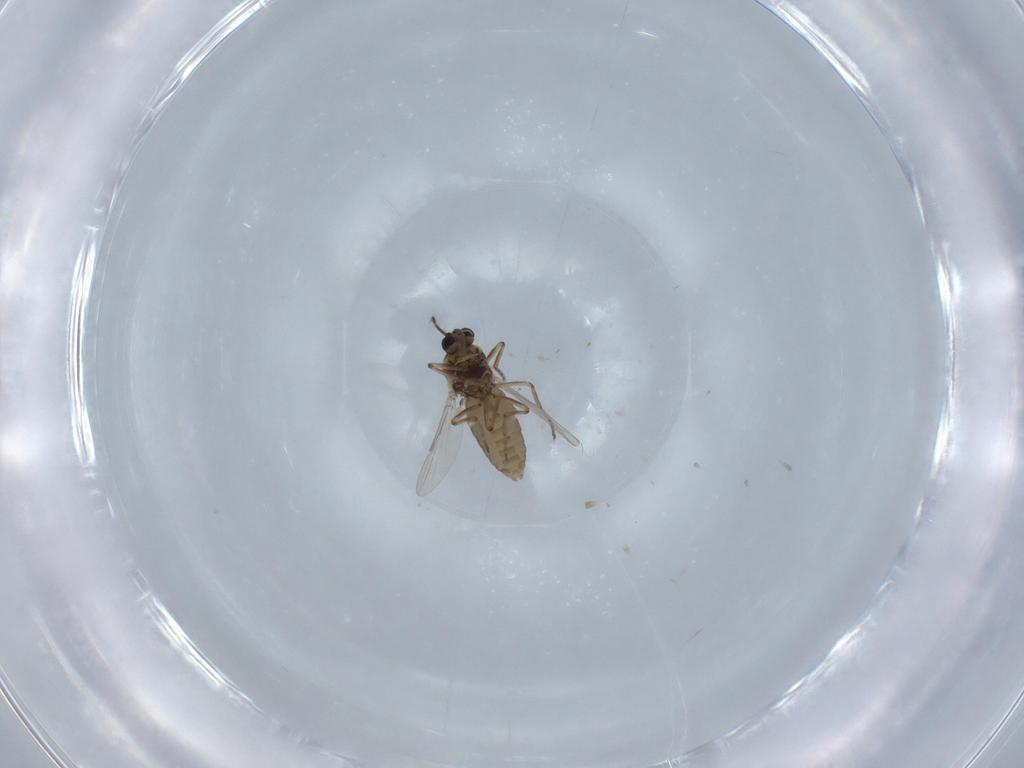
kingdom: Animalia
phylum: Arthropoda
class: Insecta
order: Diptera
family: Ceratopogonidae
